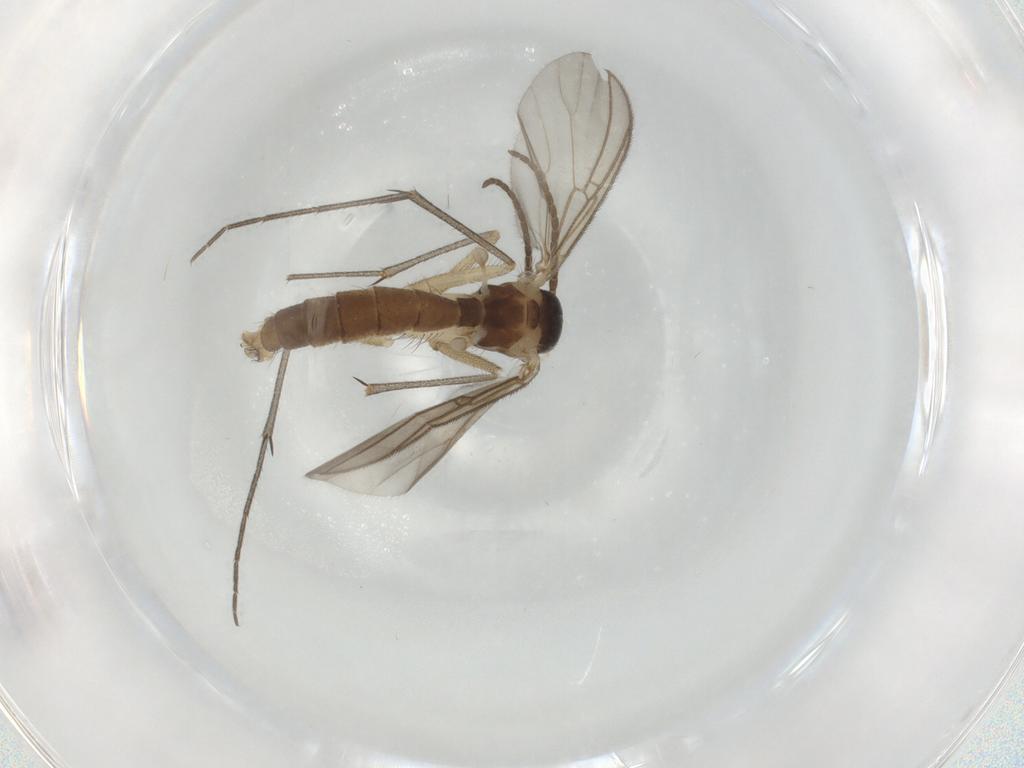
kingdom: Animalia
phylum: Arthropoda
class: Insecta
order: Diptera
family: Mycetophilidae
